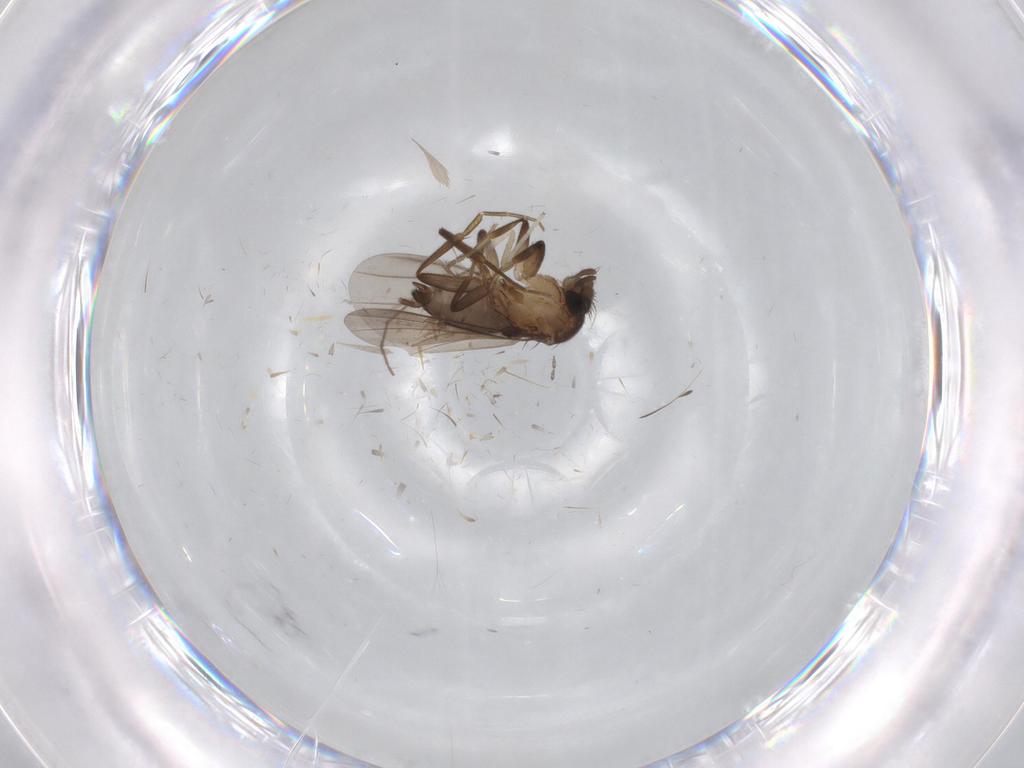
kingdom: Animalia
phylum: Arthropoda
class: Insecta
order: Diptera
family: Phoridae
